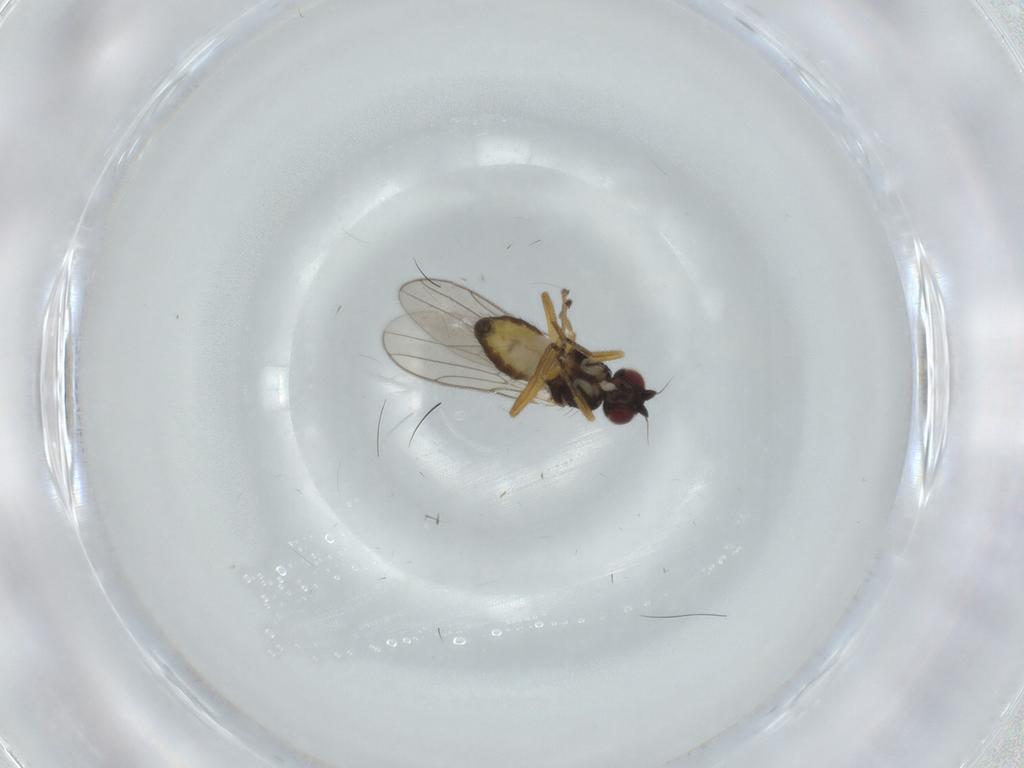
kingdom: Animalia
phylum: Arthropoda
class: Insecta
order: Diptera
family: Chloropidae
